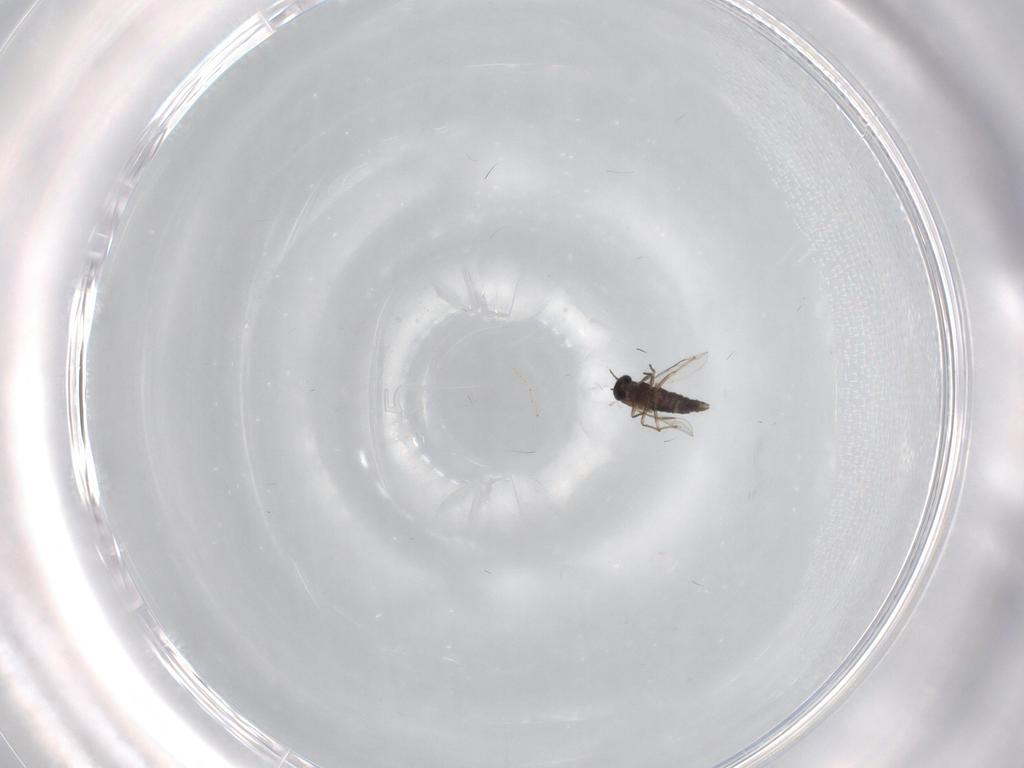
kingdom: Animalia
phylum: Arthropoda
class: Insecta
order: Diptera
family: Chironomidae
